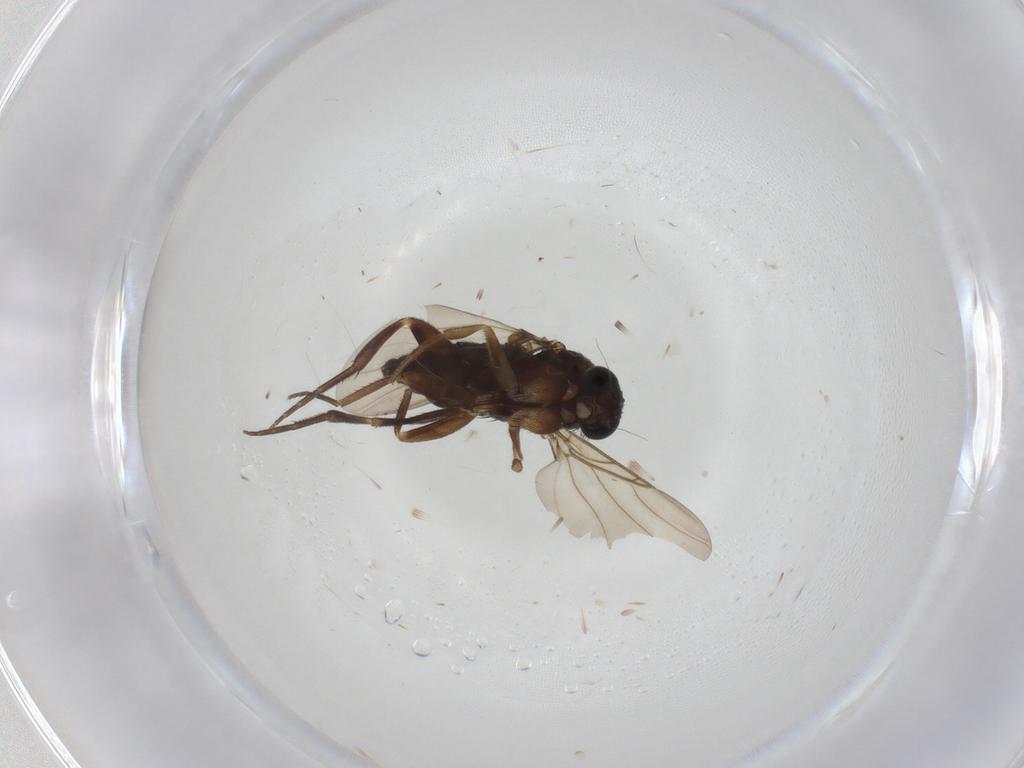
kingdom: Animalia
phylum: Arthropoda
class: Insecta
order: Diptera
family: Phoridae
